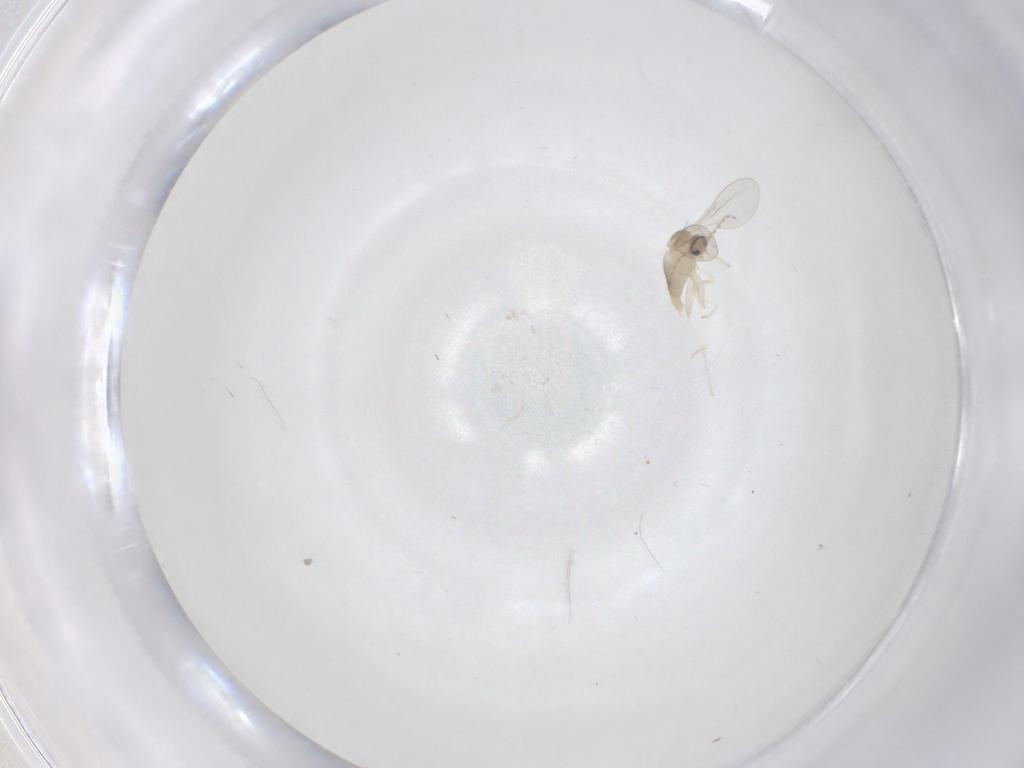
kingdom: Animalia
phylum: Arthropoda
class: Insecta
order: Diptera
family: Cecidomyiidae
